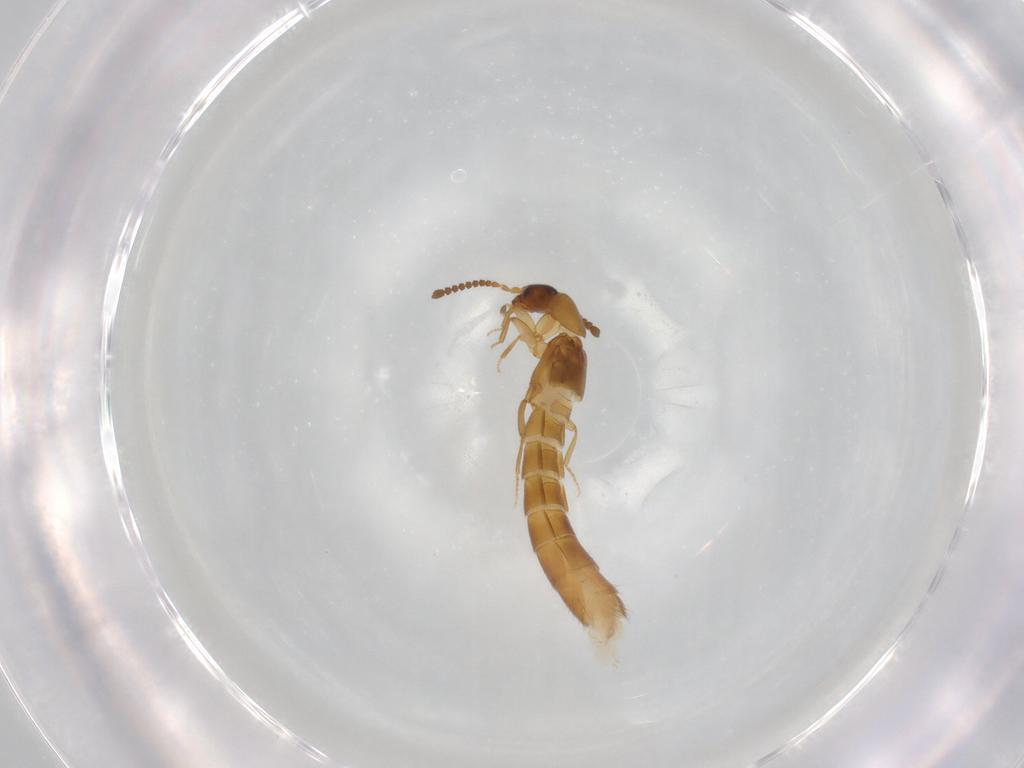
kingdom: Animalia
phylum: Arthropoda
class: Insecta
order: Coleoptera
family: Staphylinidae
